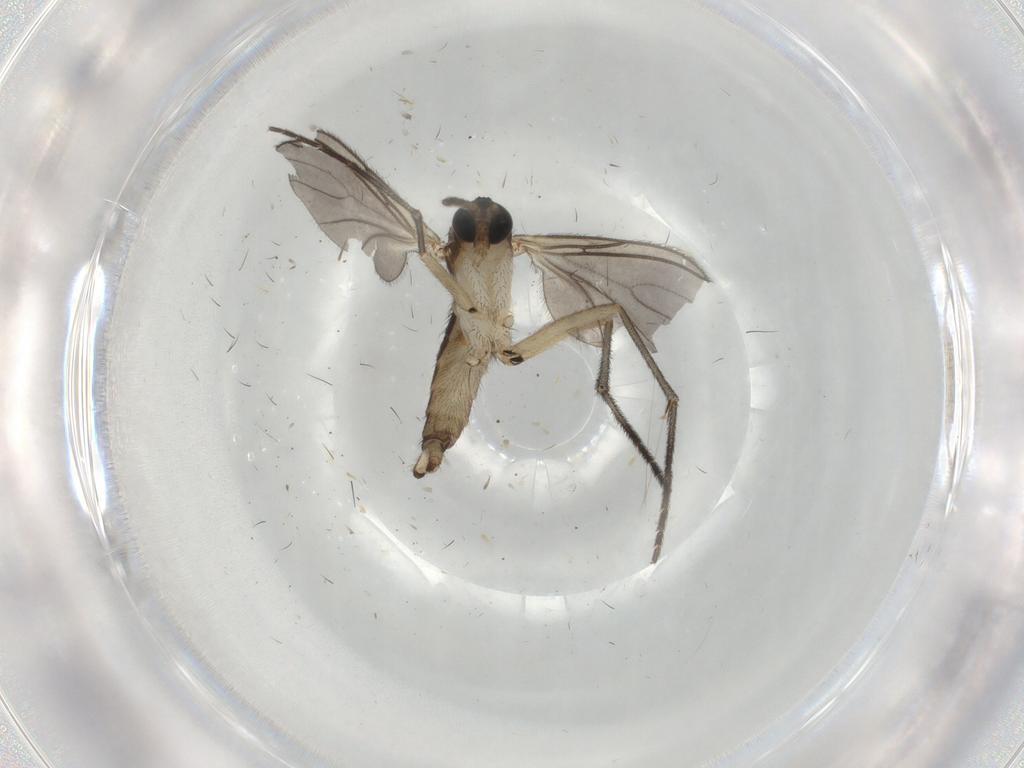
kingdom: Animalia
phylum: Arthropoda
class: Insecta
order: Diptera
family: Sciaridae
